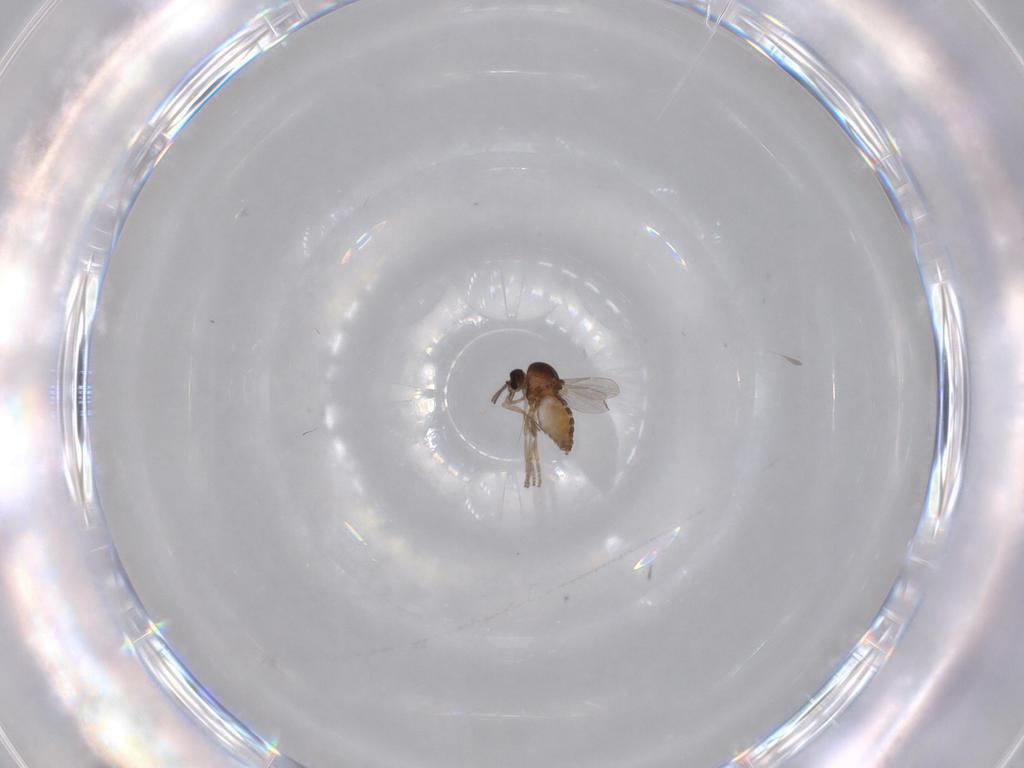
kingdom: Animalia
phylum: Arthropoda
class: Insecta
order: Diptera
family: Ceratopogonidae
